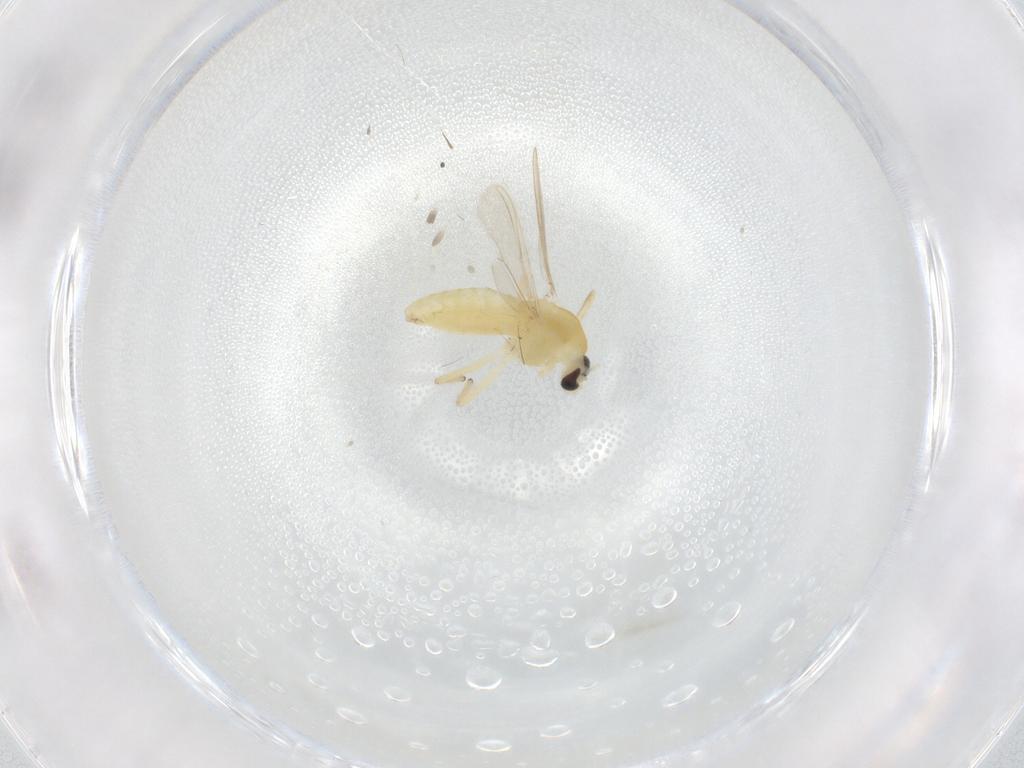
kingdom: Animalia
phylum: Arthropoda
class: Insecta
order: Diptera
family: Chironomidae
